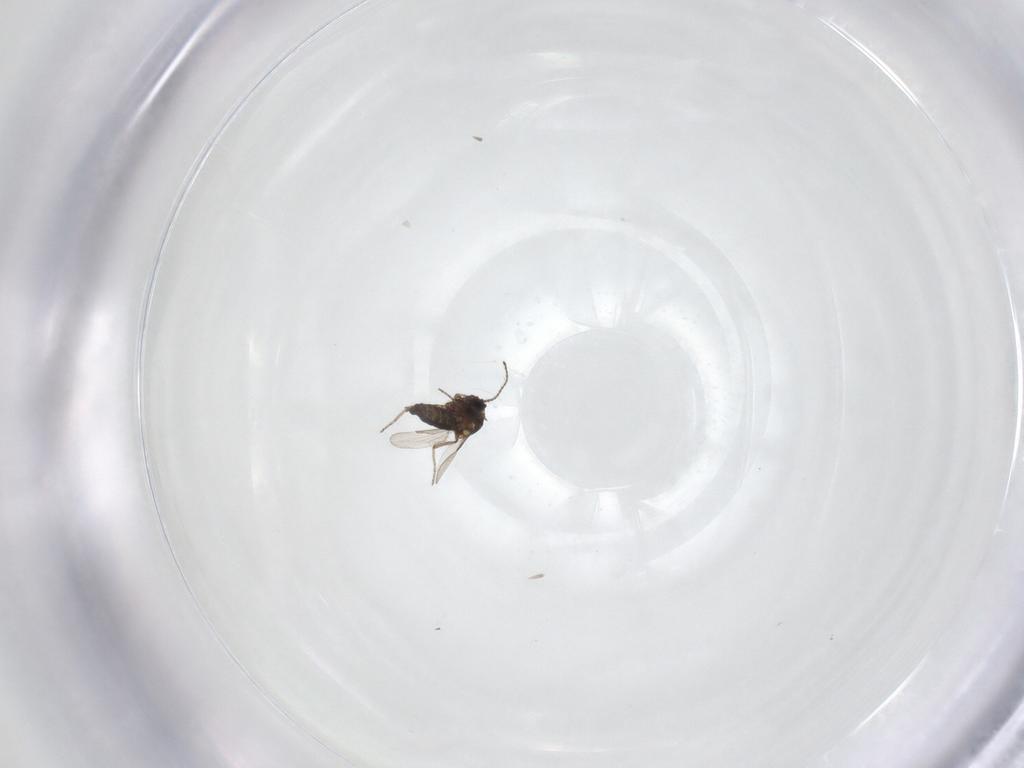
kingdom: Animalia
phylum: Arthropoda
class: Insecta
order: Diptera
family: Ceratopogonidae
